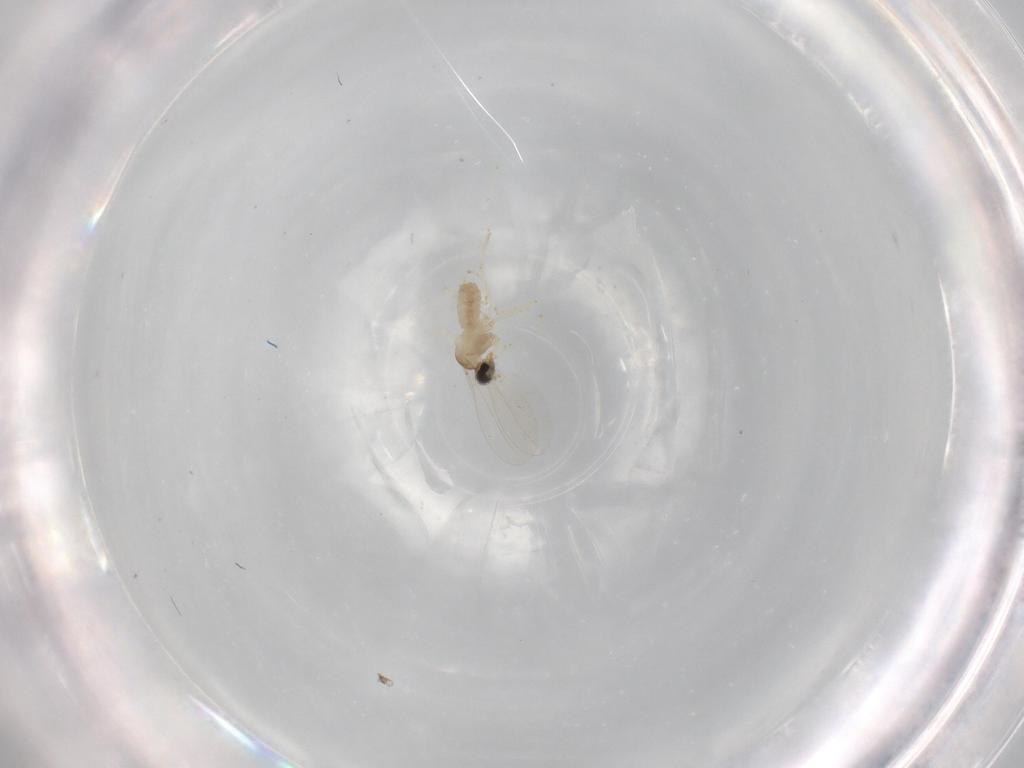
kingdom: Animalia
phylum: Arthropoda
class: Insecta
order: Diptera
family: Cecidomyiidae
